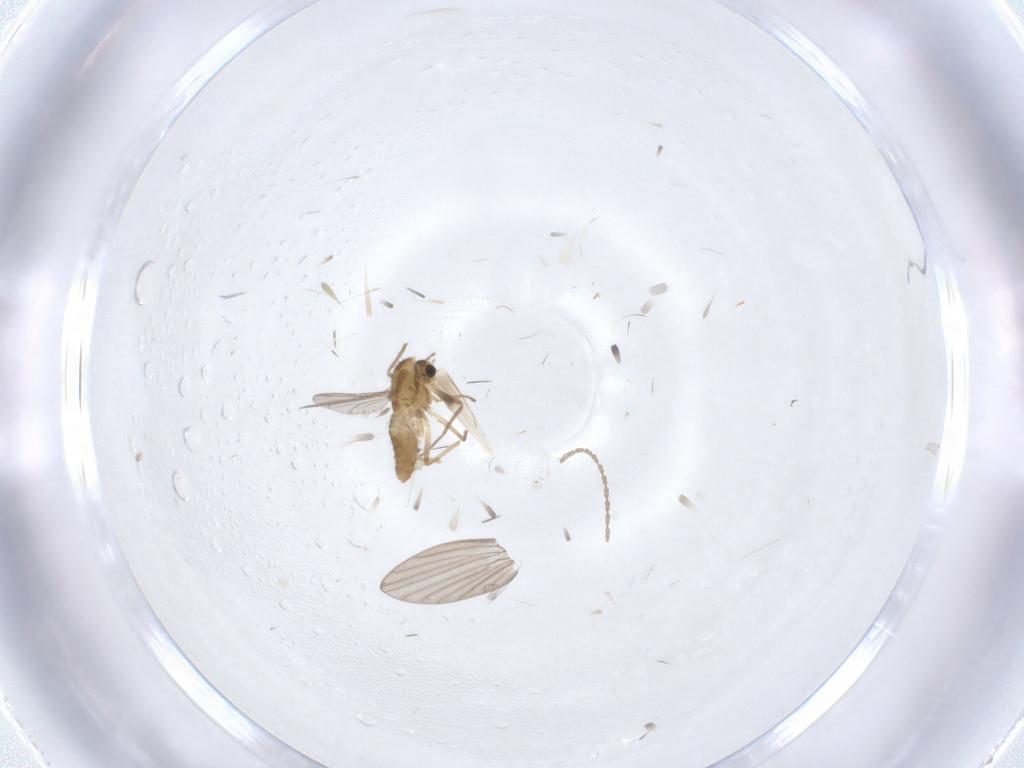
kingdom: Animalia
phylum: Arthropoda
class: Insecta
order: Diptera
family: Chironomidae
